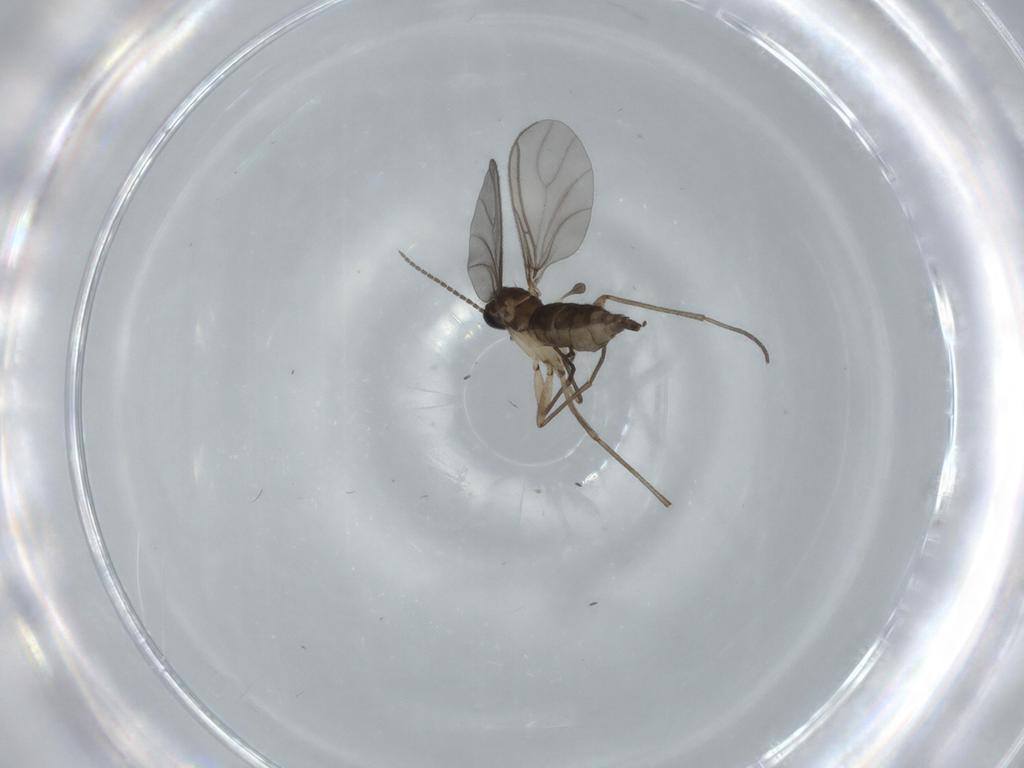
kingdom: Animalia
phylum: Arthropoda
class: Insecta
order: Diptera
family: Sciaridae
